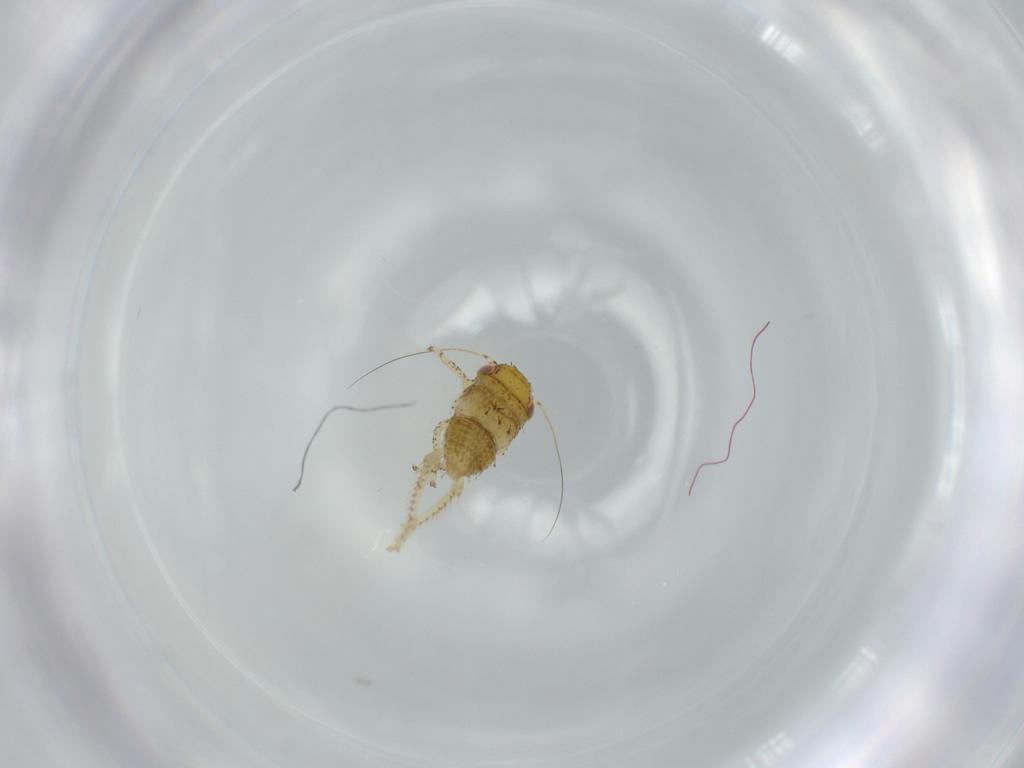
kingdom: Animalia
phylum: Arthropoda
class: Insecta
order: Hemiptera
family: Cicadellidae
